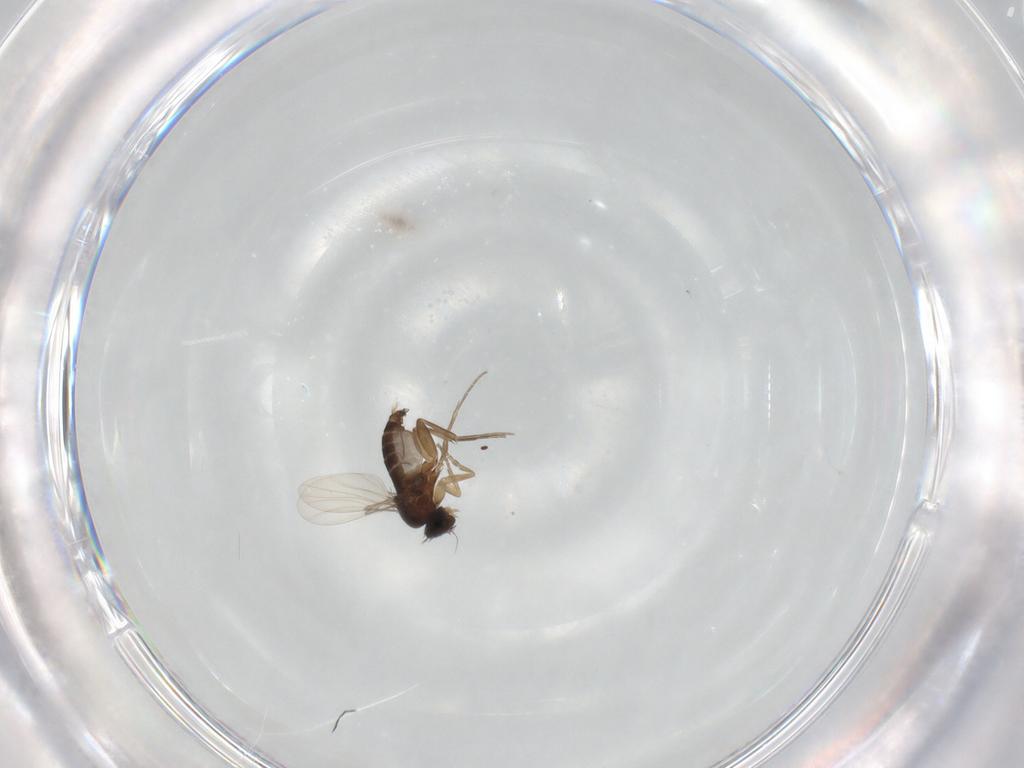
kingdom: Animalia
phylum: Arthropoda
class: Insecta
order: Diptera
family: Phoridae
